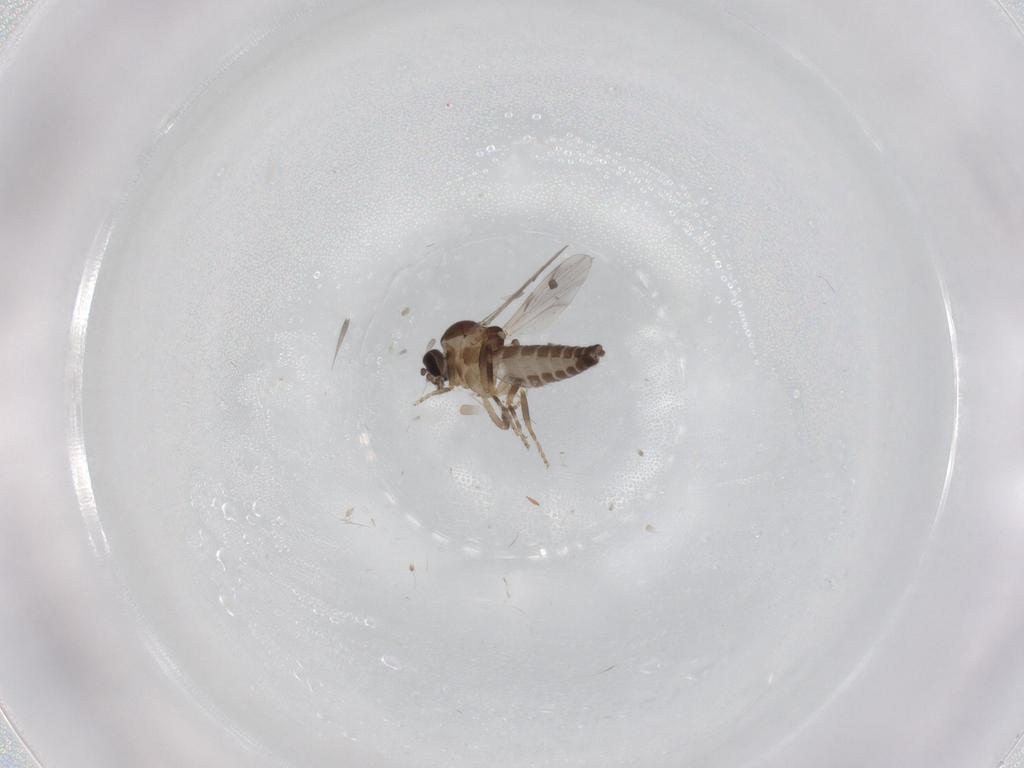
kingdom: Animalia
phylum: Arthropoda
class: Insecta
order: Diptera
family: Ceratopogonidae
